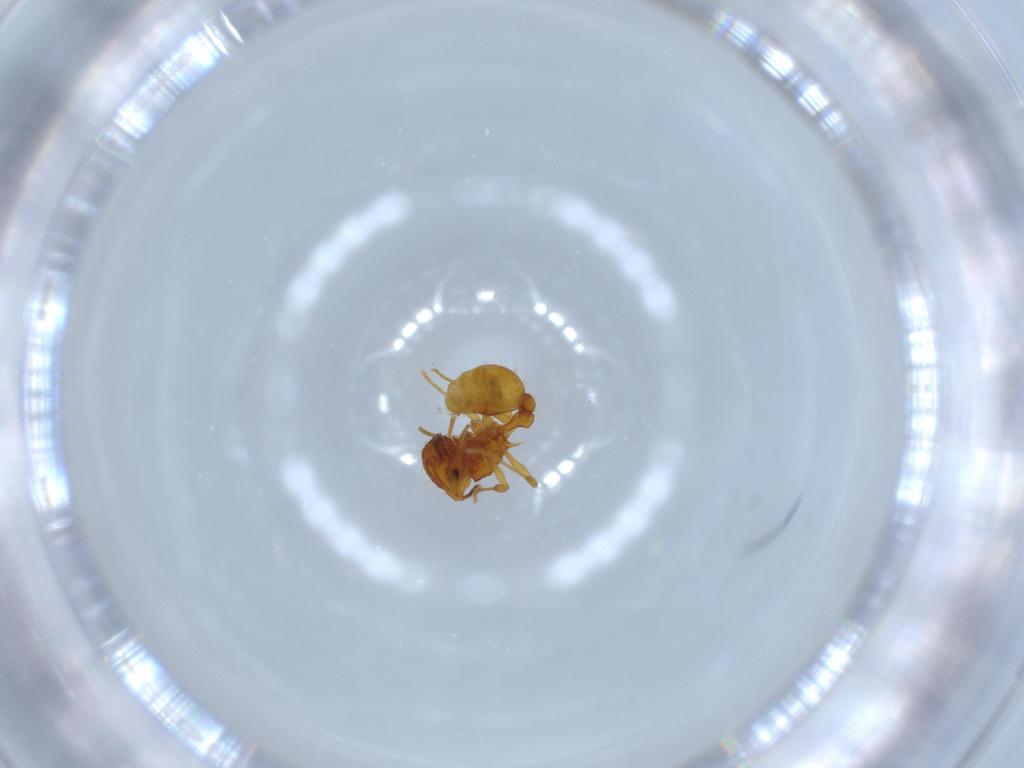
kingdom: Animalia
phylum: Arthropoda
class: Insecta
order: Hymenoptera
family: Formicidae
